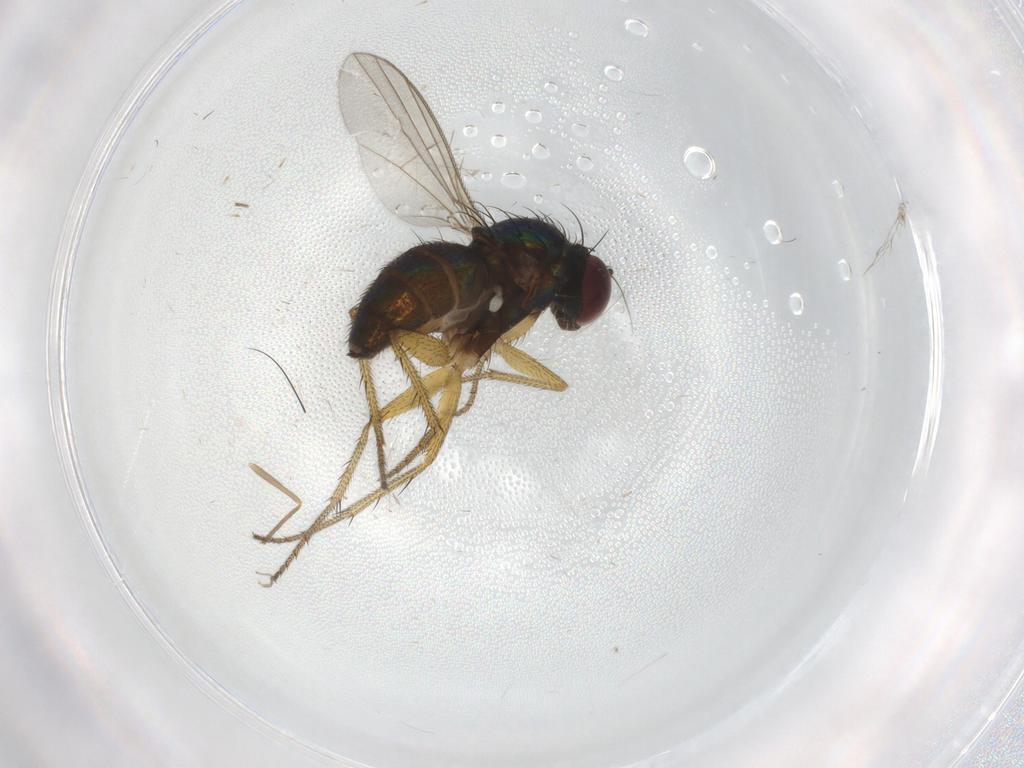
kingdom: Animalia
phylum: Arthropoda
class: Insecta
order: Diptera
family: Dolichopodidae
